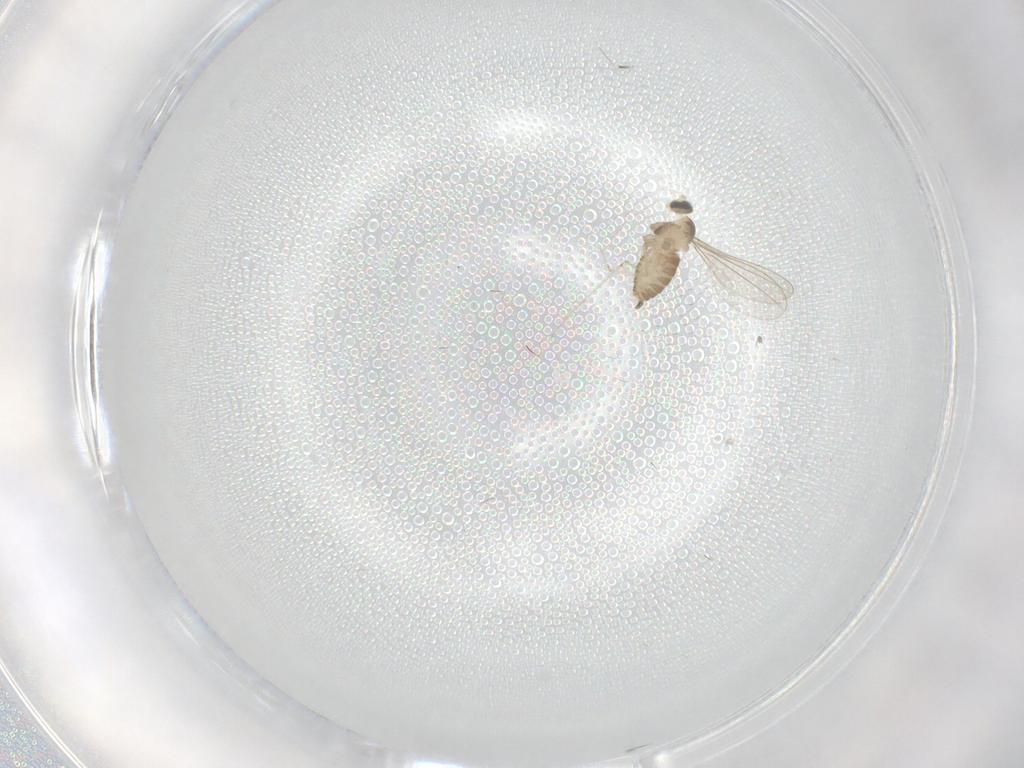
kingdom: Animalia
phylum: Arthropoda
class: Insecta
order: Diptera
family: Cecidomyiidae
